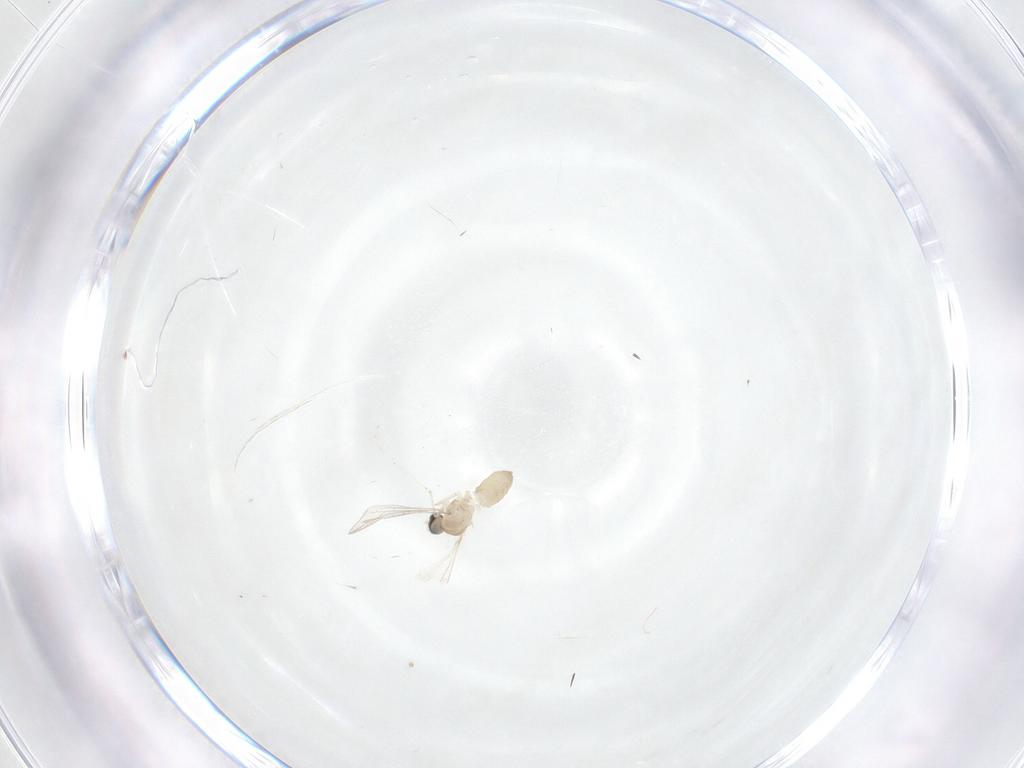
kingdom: Animalia
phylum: Arthropoda
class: Insecta
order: Diptera
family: Cecidomyiidae
